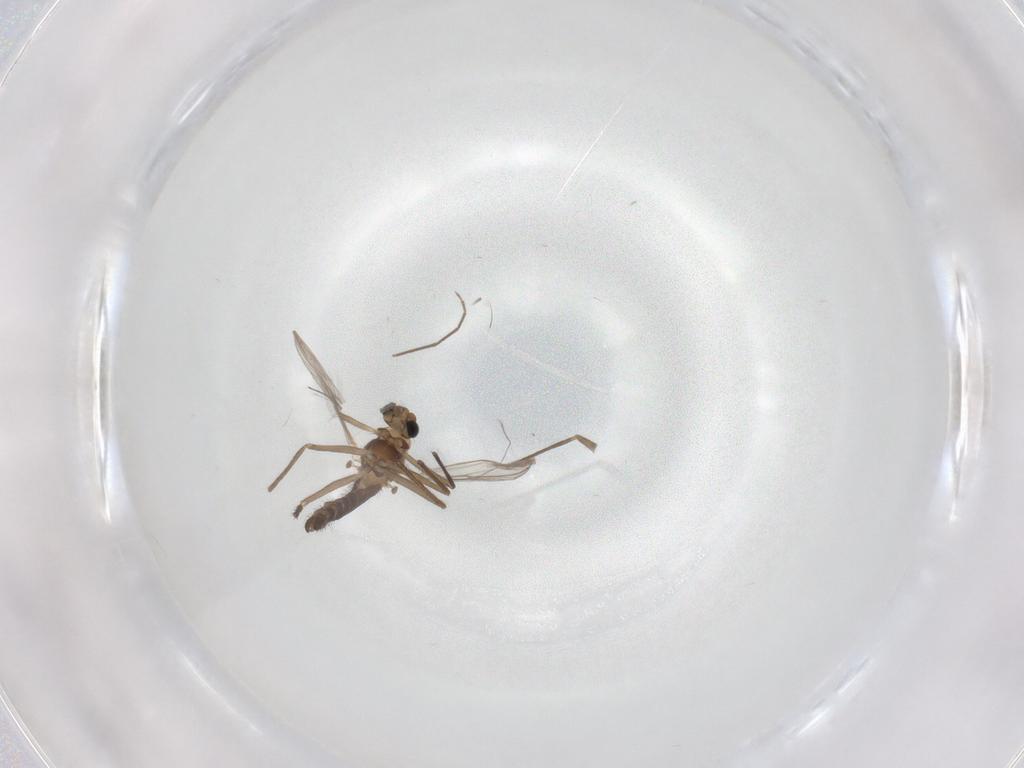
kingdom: Animalia
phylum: Arthropoda
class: Insecta
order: Diptera
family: Chironomidae
